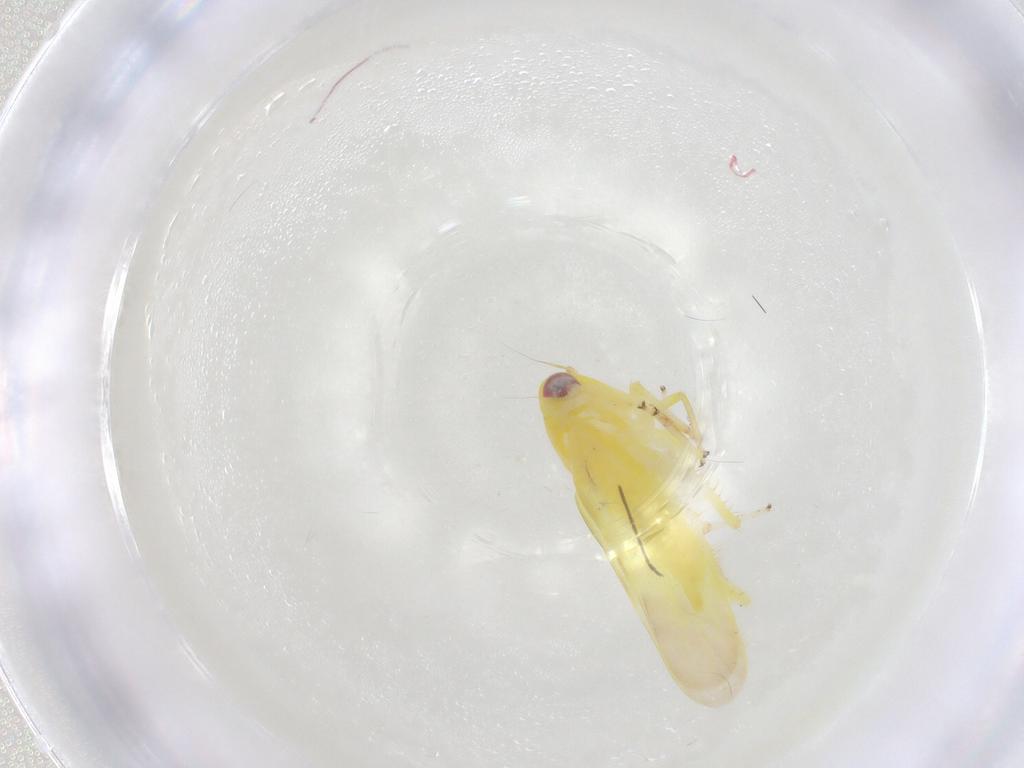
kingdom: Animalia
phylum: Arthropoda
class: Insecta
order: Hemiptera
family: Cicadellidae
